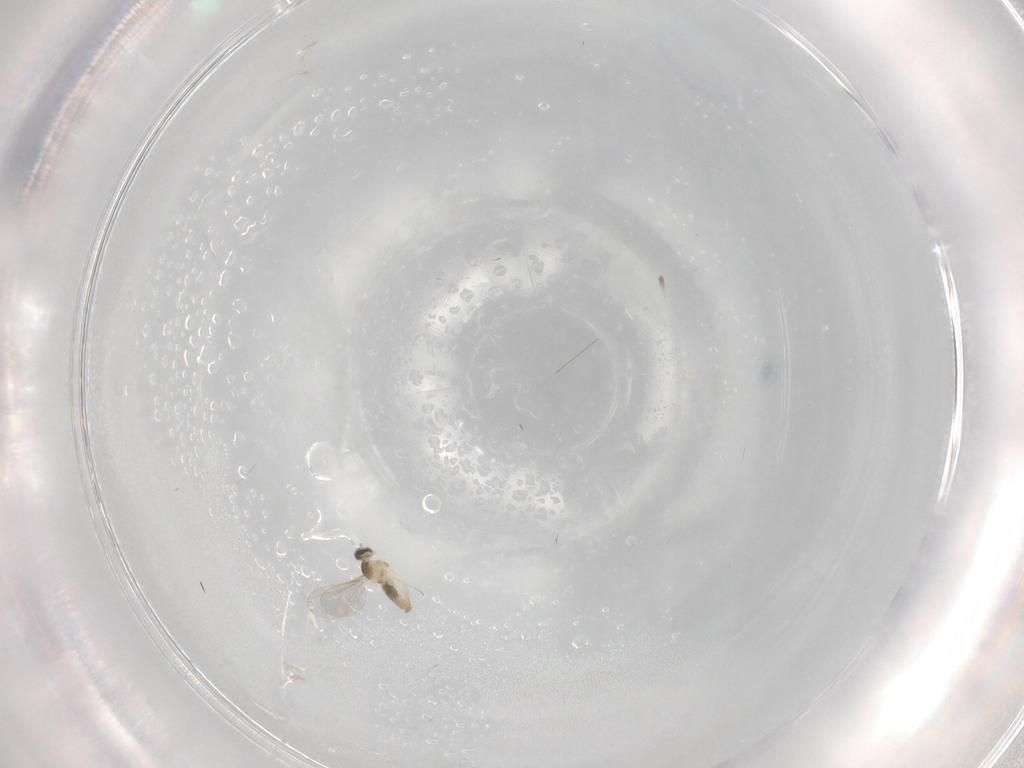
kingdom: Animalia
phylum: Arthropoda
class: Insecta
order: Diptera
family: Cecidomyiidae
